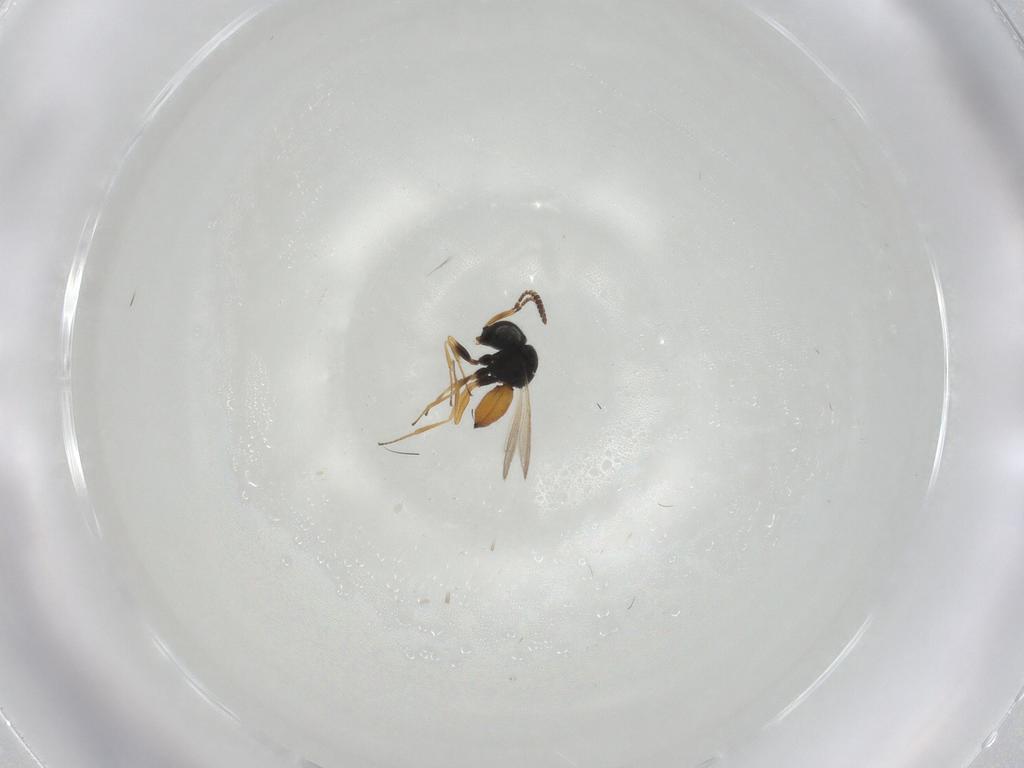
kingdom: Animalia
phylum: Arthropoda
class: Insecta
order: Hymenoptera
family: Scelionidae
